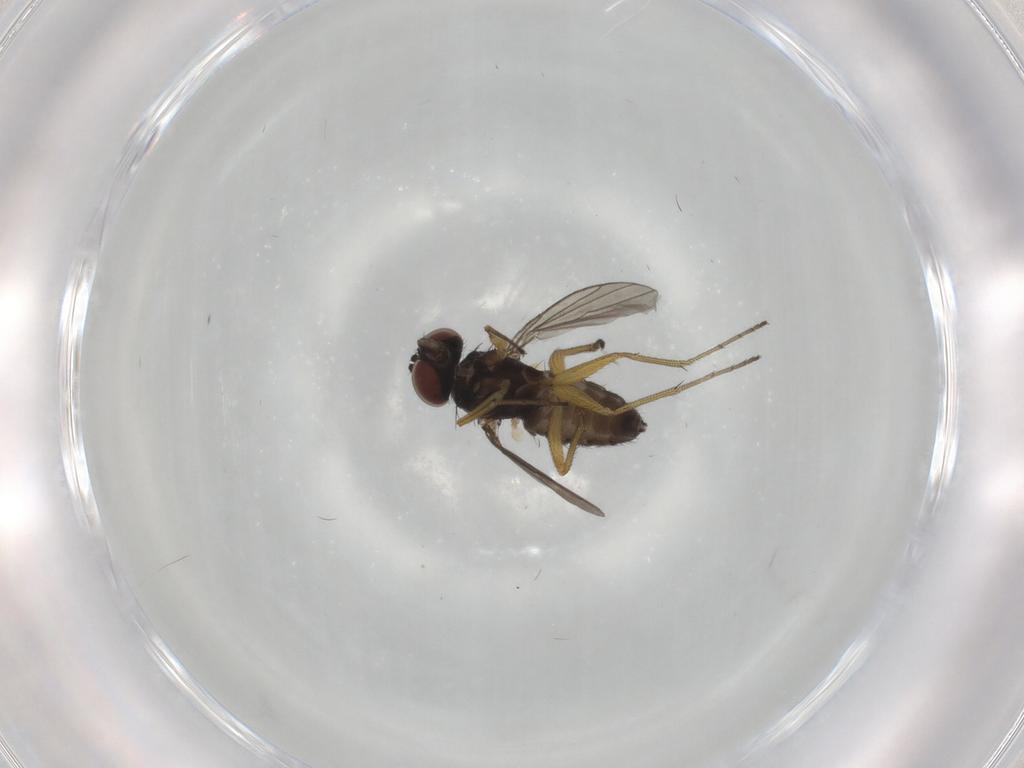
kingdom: Animalia
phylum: Arthropoda
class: Insecta
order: Diptera
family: Dolichopodidae
